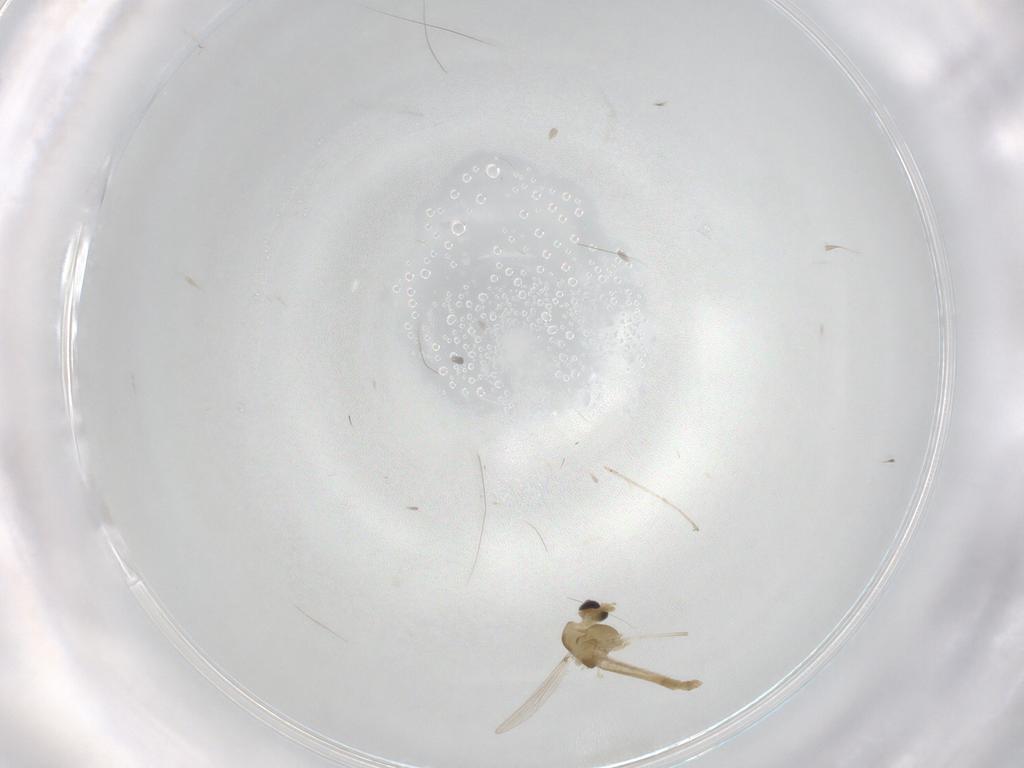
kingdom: Animalia
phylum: Arthropoda
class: Insecta
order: Diptera
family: Chironomidae
